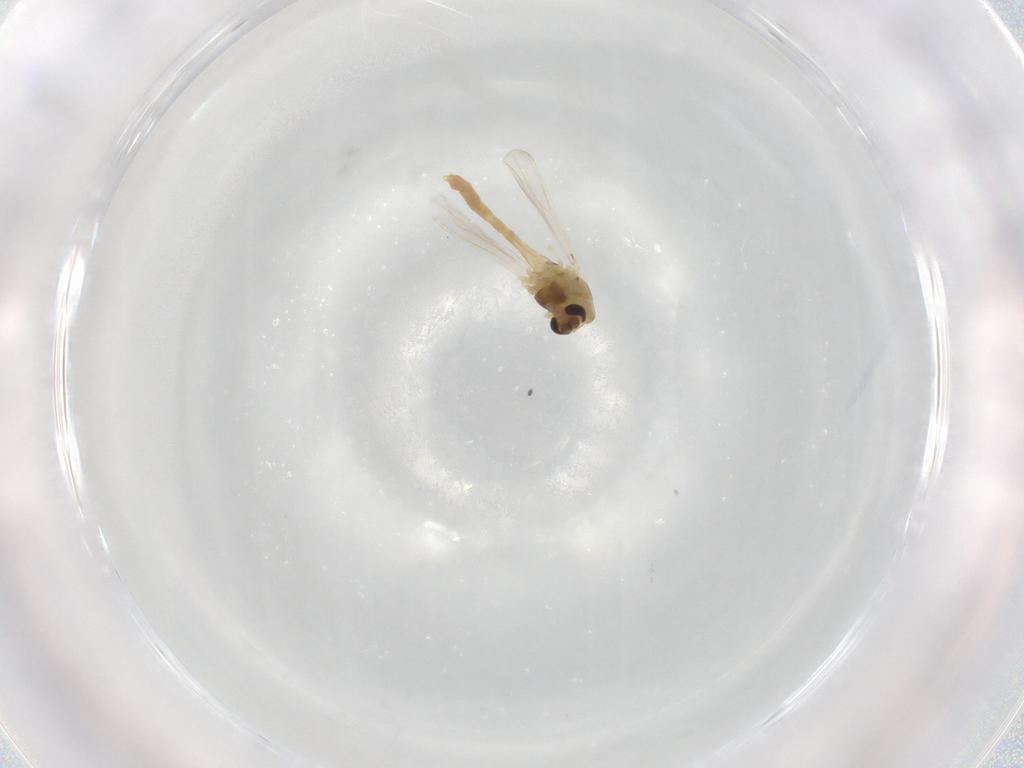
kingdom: Animalia
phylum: Arthropoda
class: Insecta
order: Diptera
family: Chironomidae
